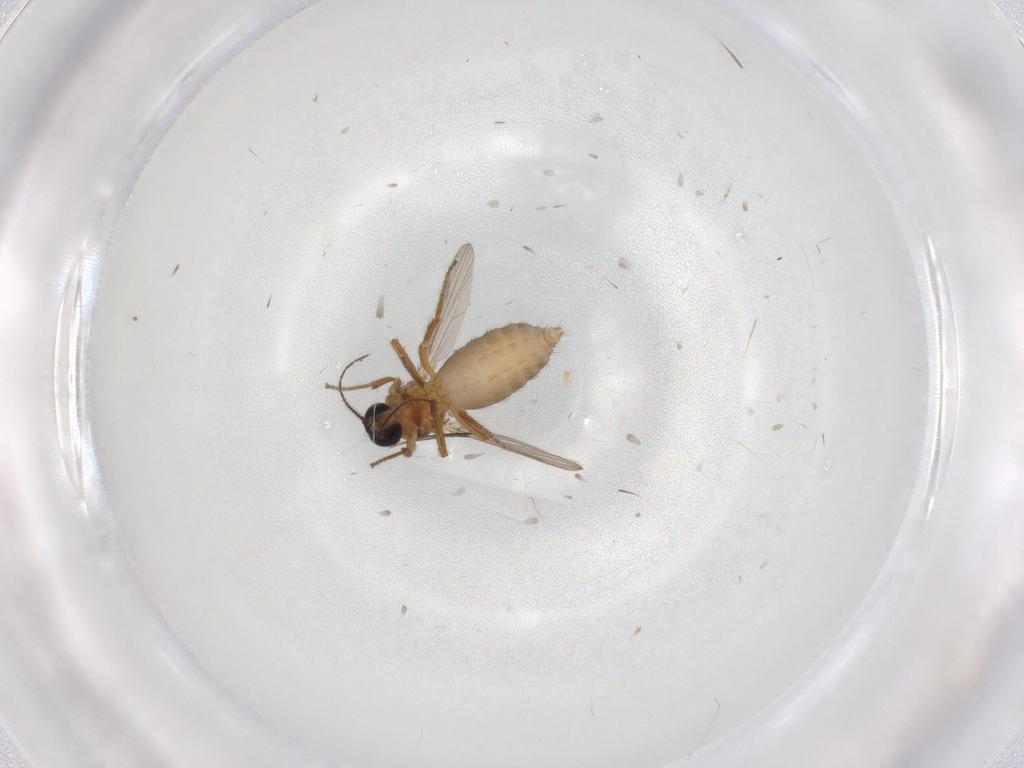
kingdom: Animalia
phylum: Arthropoda
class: Insecta
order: Diptera
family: Ceratopogonidae
